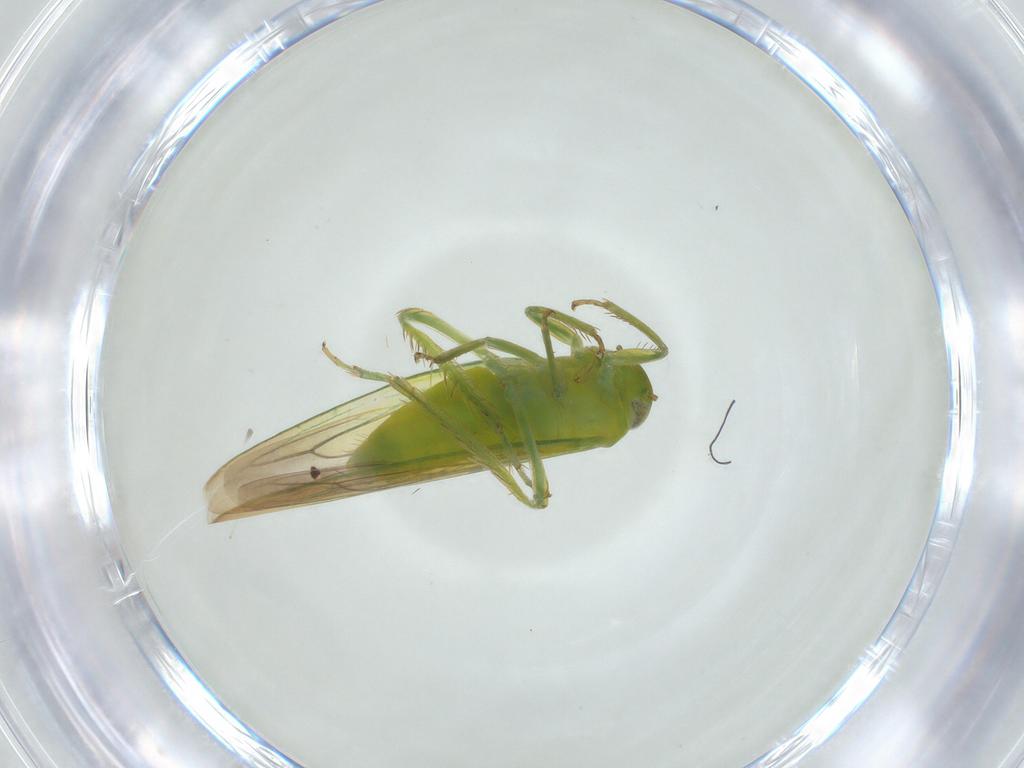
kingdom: Animalia
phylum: Arthropoda
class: Insecta
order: Hemiptera
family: Cicadellidae
